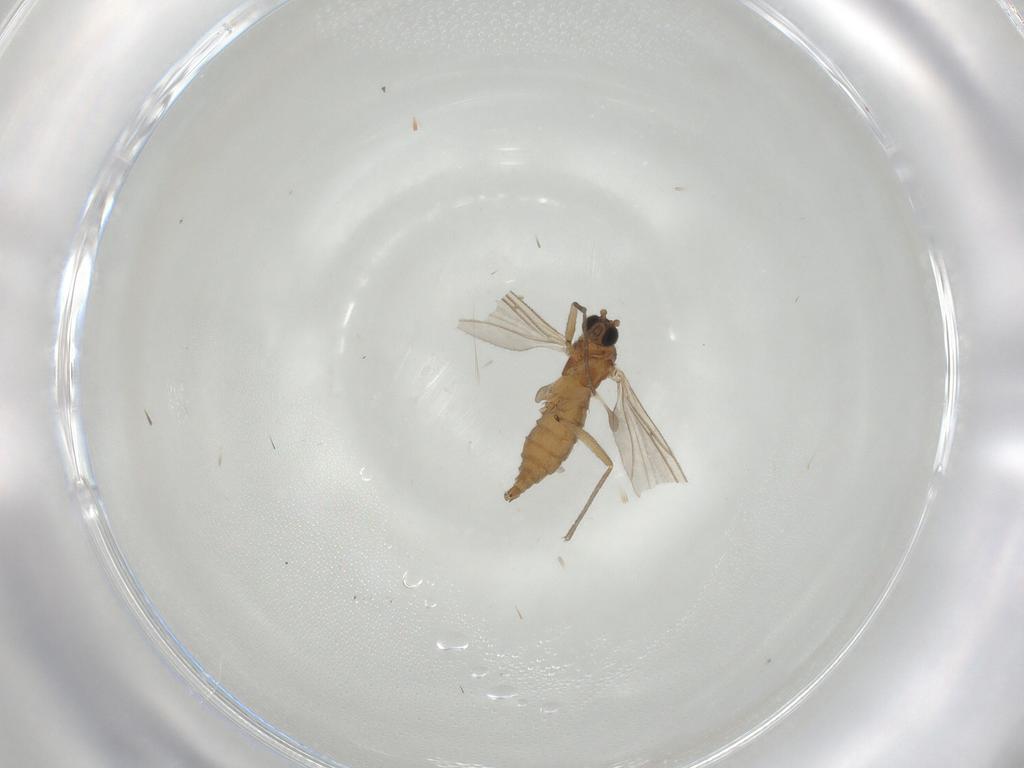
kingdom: Animalia
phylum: Arthropoda
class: Insecta
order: Diptera
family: Sciaridae
